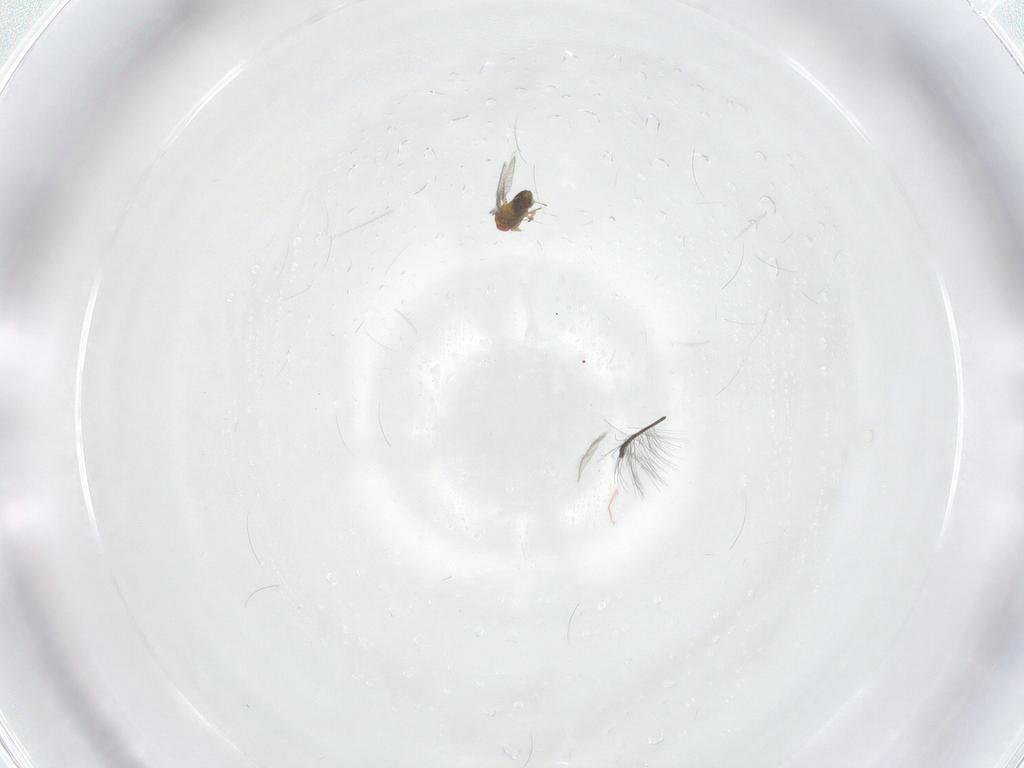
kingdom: Animalia
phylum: Arthropoda
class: Insecta
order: Hymenoptera
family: Trichogrammatidae
